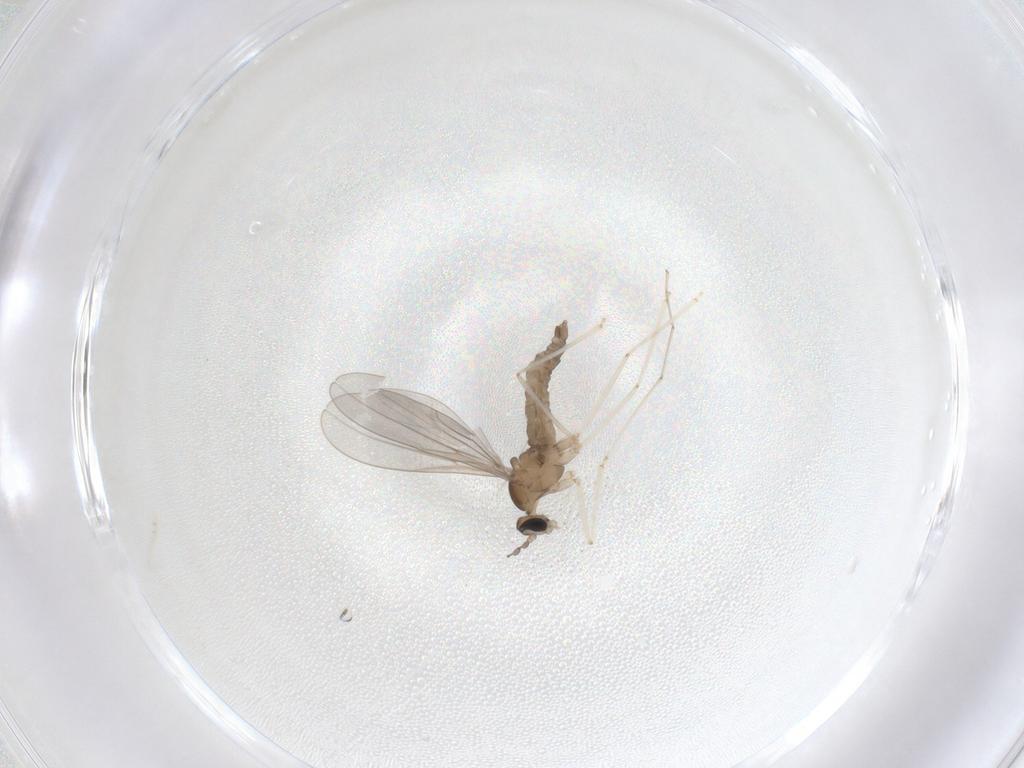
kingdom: Animalia
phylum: Arthropoda
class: Insecta
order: Diptera
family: Cecidomyiidae
